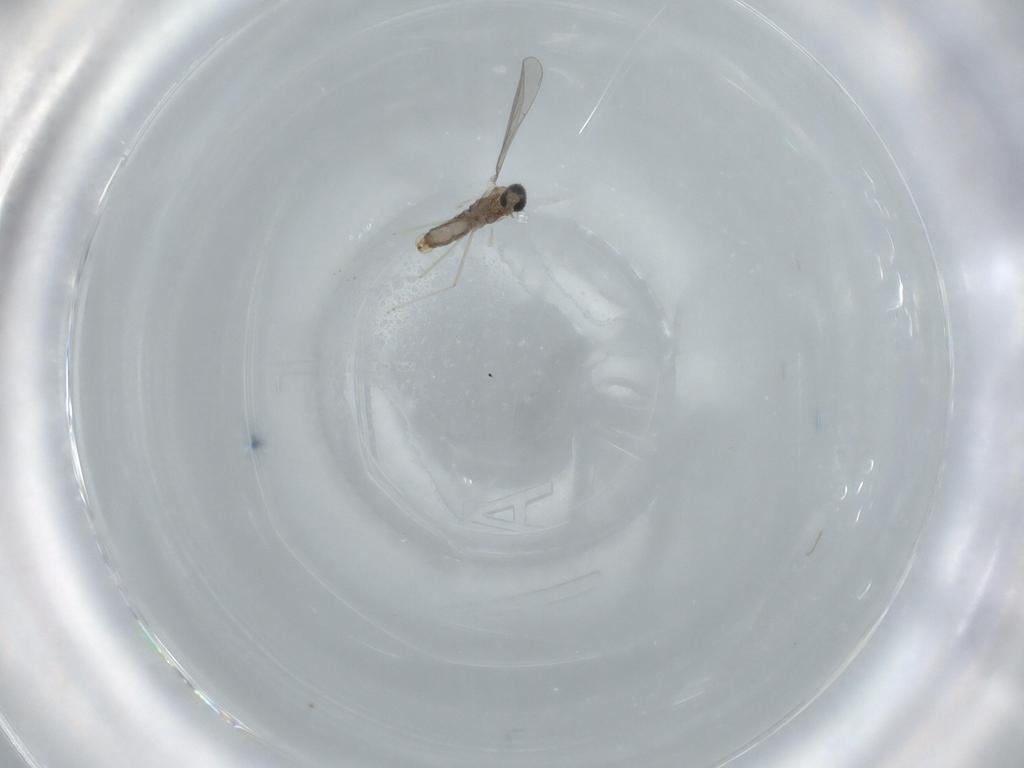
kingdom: Animalia
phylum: Arthropoda
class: Insecta
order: Diptera
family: Cecidomyiidae
